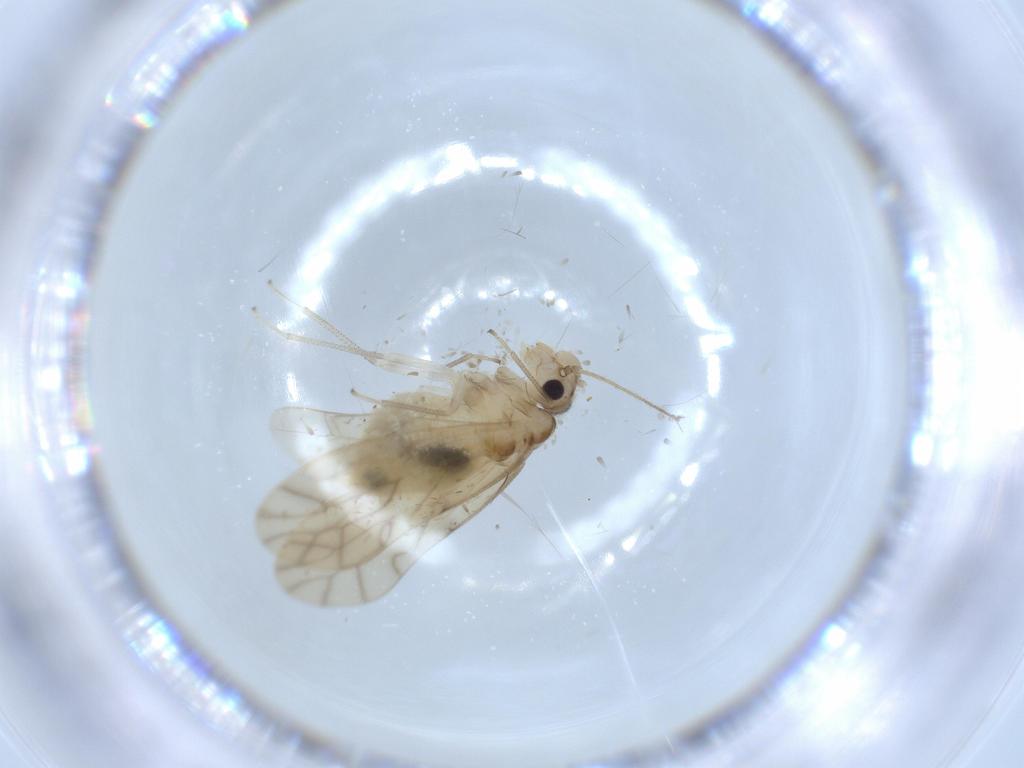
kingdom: Animalia
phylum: Arthropoda
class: Insecta
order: Psocodea
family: Caeciliusidae
